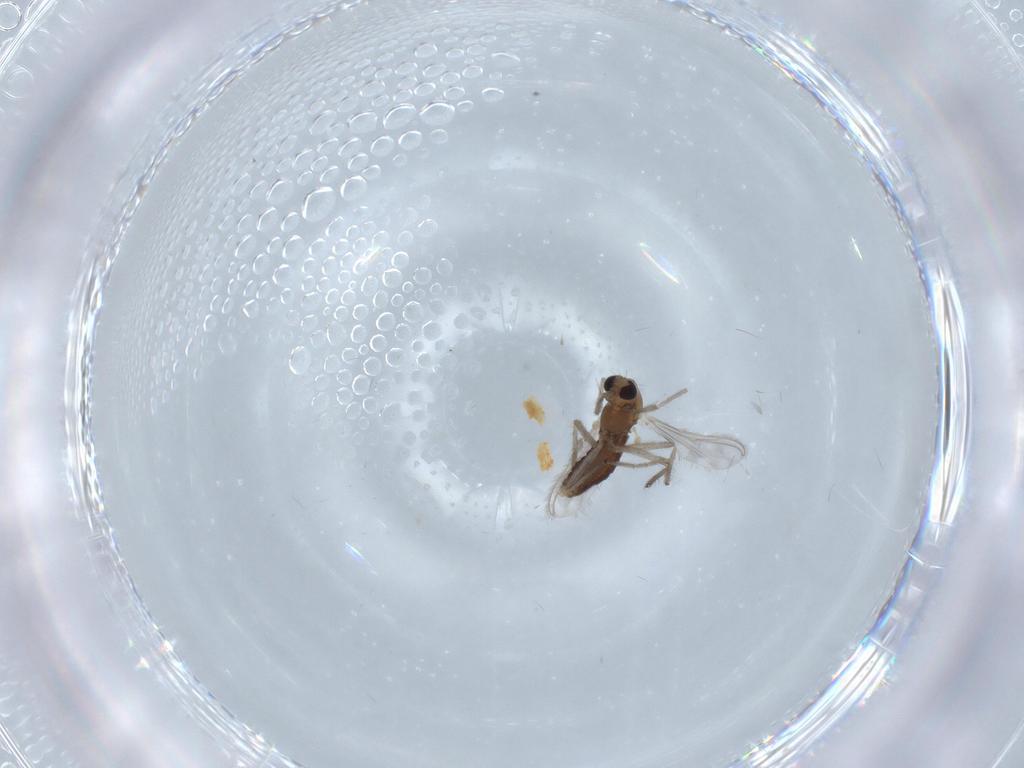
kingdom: Animalia
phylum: Arthropoda
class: Insecta
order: Diptera
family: Chironomidae
